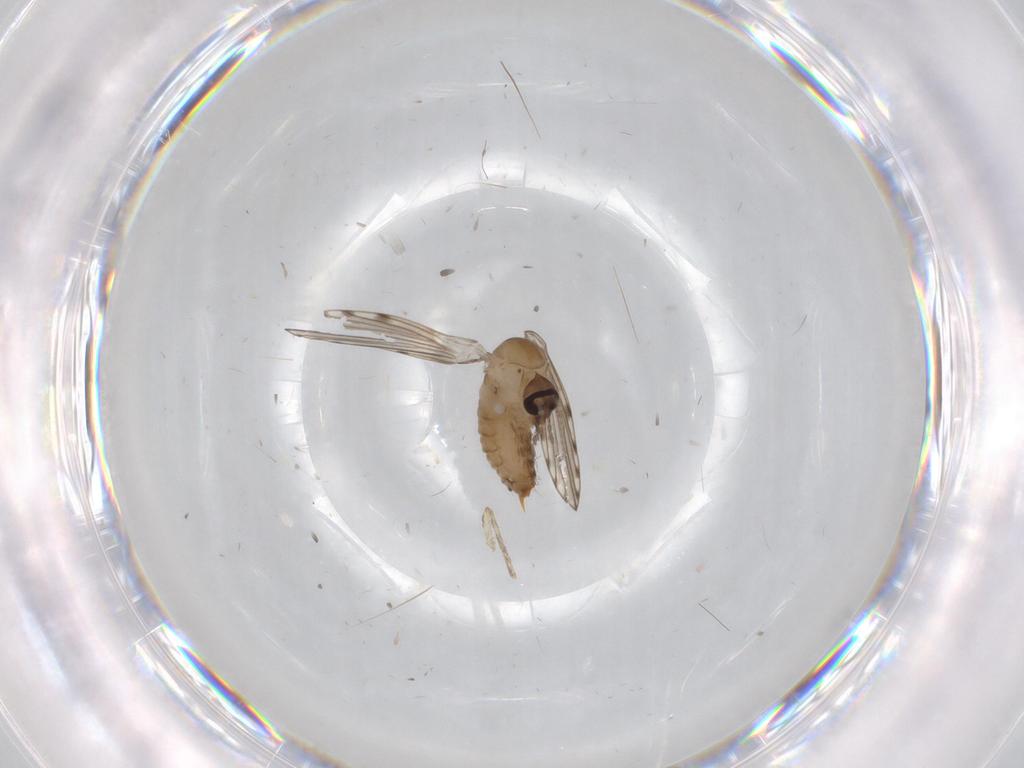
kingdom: Animalia
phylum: Arthropoda
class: Insecta
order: Diptera
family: Psychodidae
